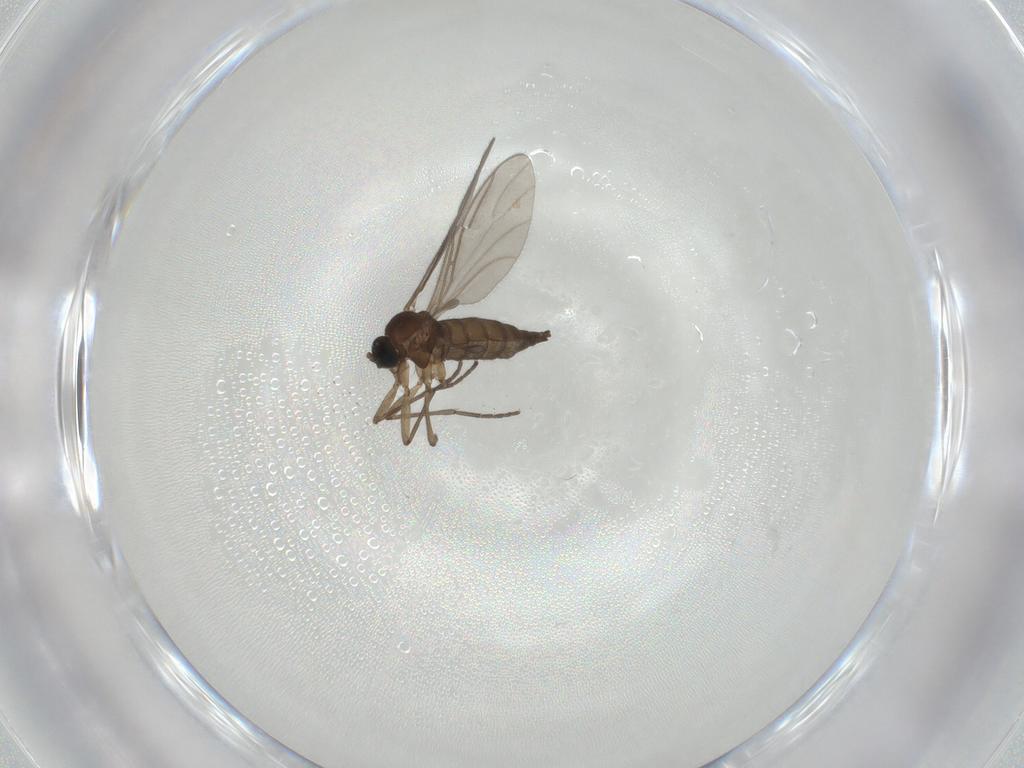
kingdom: Animalia
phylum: Arthropoda
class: Insecta
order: Diptera
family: Sciaridae
